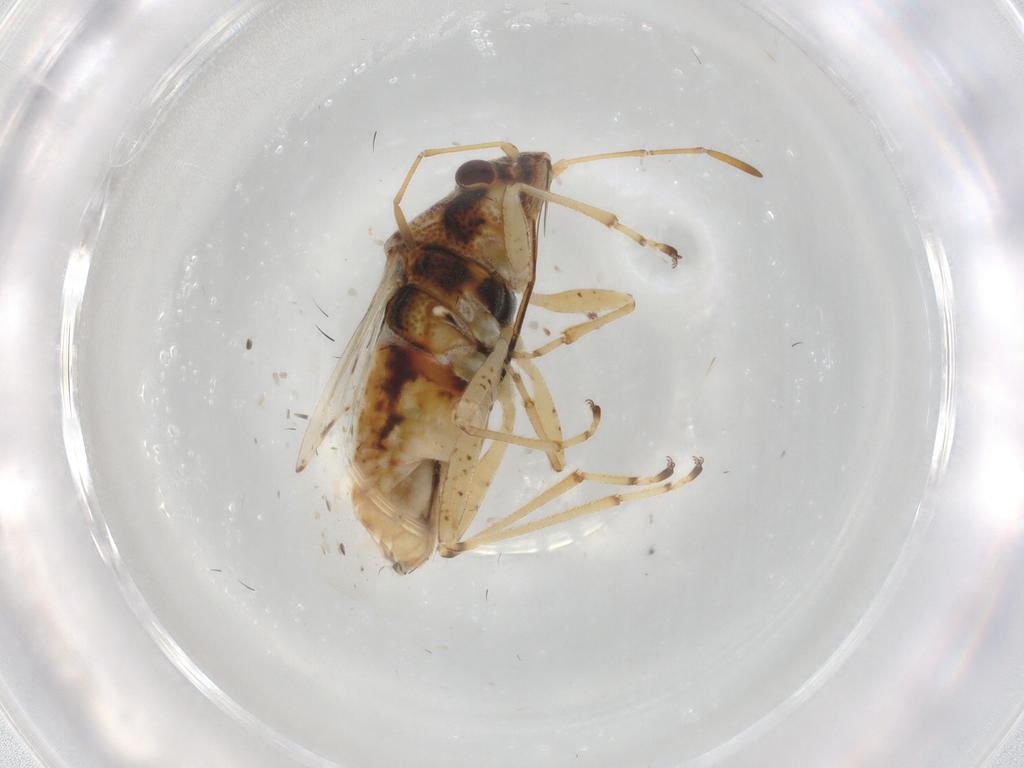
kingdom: Animalia
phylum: Arthropoda
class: Insecta
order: Hemiptera
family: Lygaeidae
